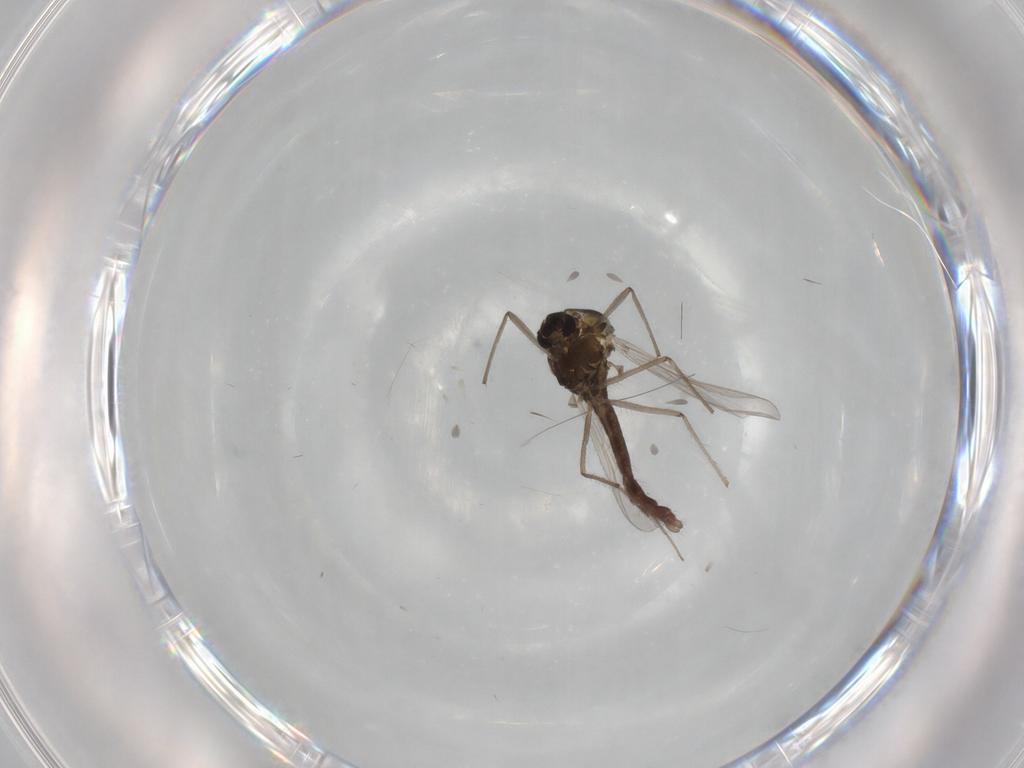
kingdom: Animalia
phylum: Arthropoda
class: Insecta
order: Diptera
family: Chironomidae
